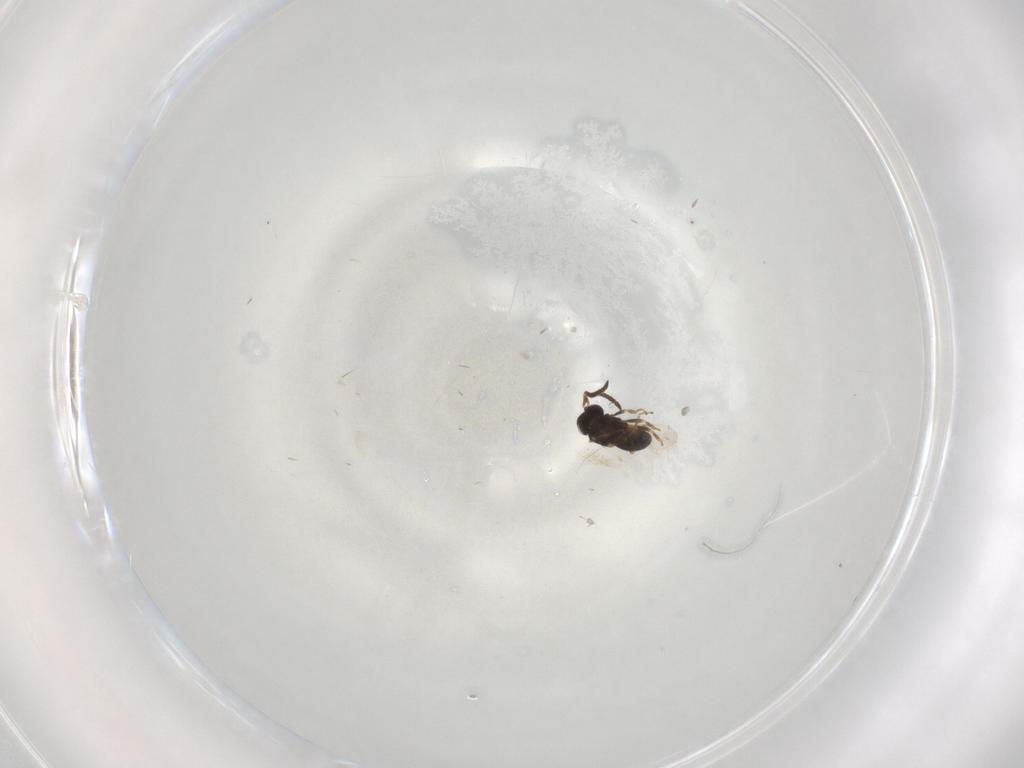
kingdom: Animalia
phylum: Arthropoda
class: Insecta
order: Hymenoptera
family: Scelionidae
